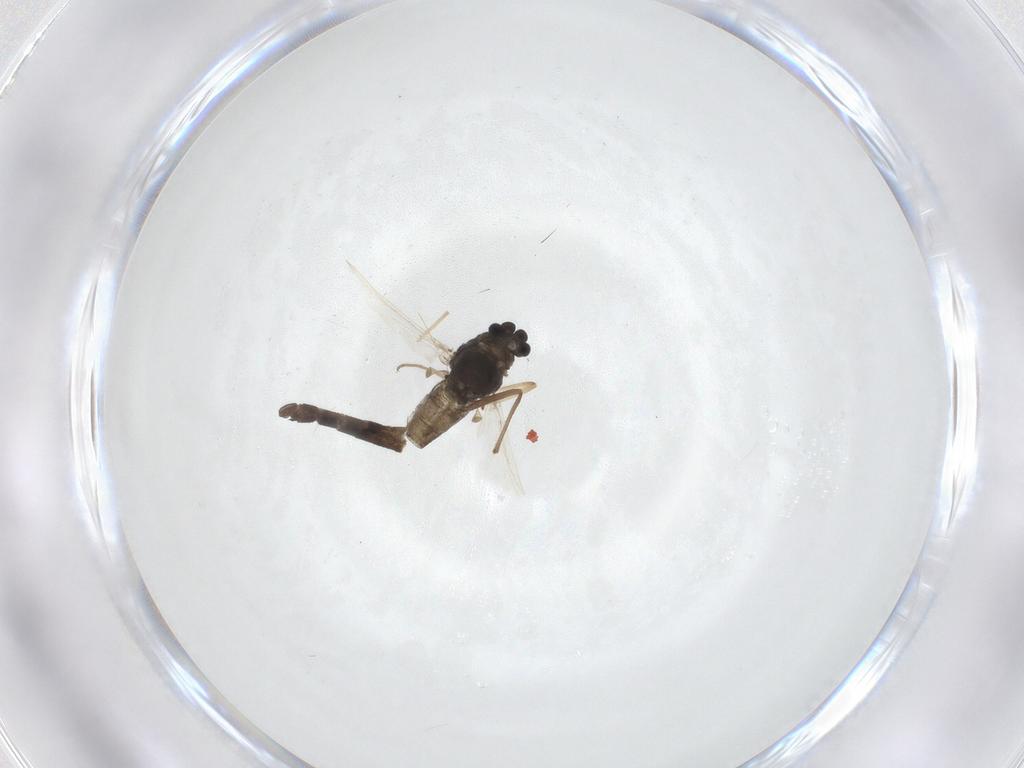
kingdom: Animalia
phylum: Arthropoda
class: Insecta
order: Diptera
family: Chironomidae
